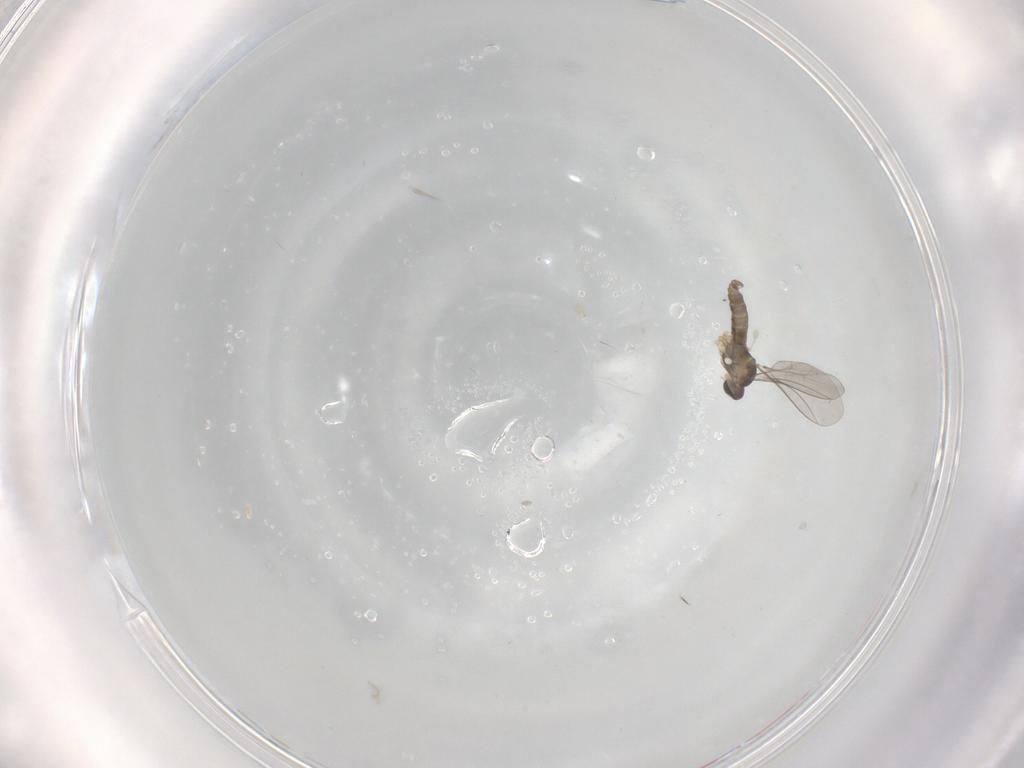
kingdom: Animalia
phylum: Arthropoda
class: Insecta
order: Diptera
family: Cecidomyiidae
